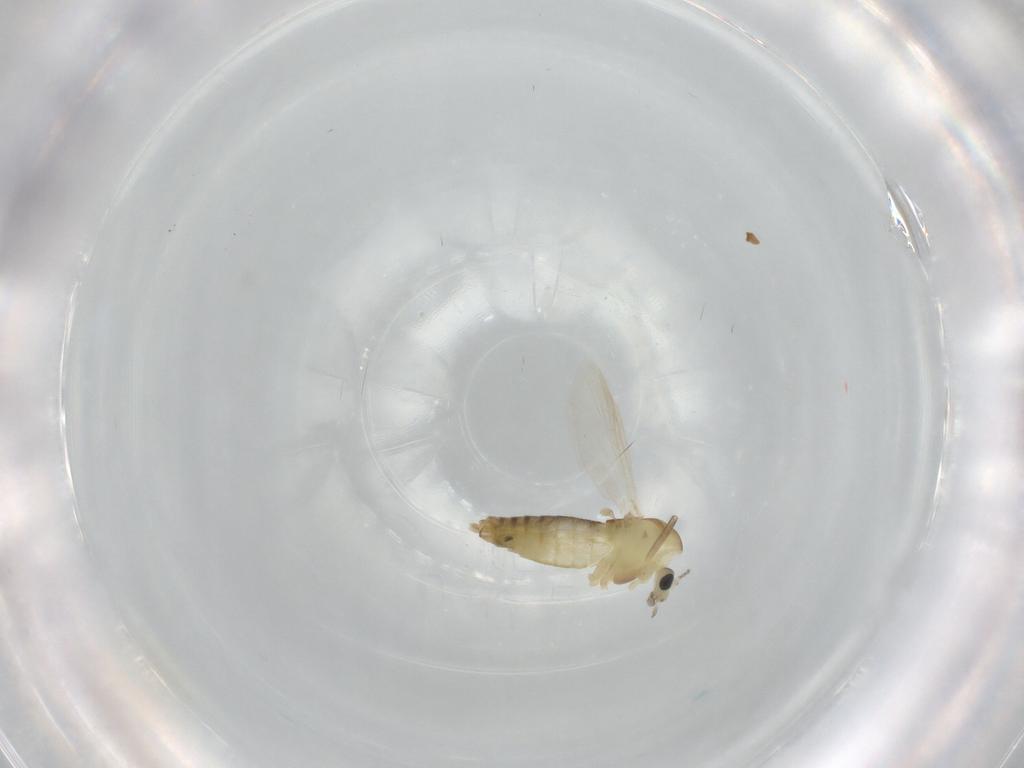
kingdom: Animalia
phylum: Arthropoda
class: Insecta
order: Diptera
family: Chironomidae
